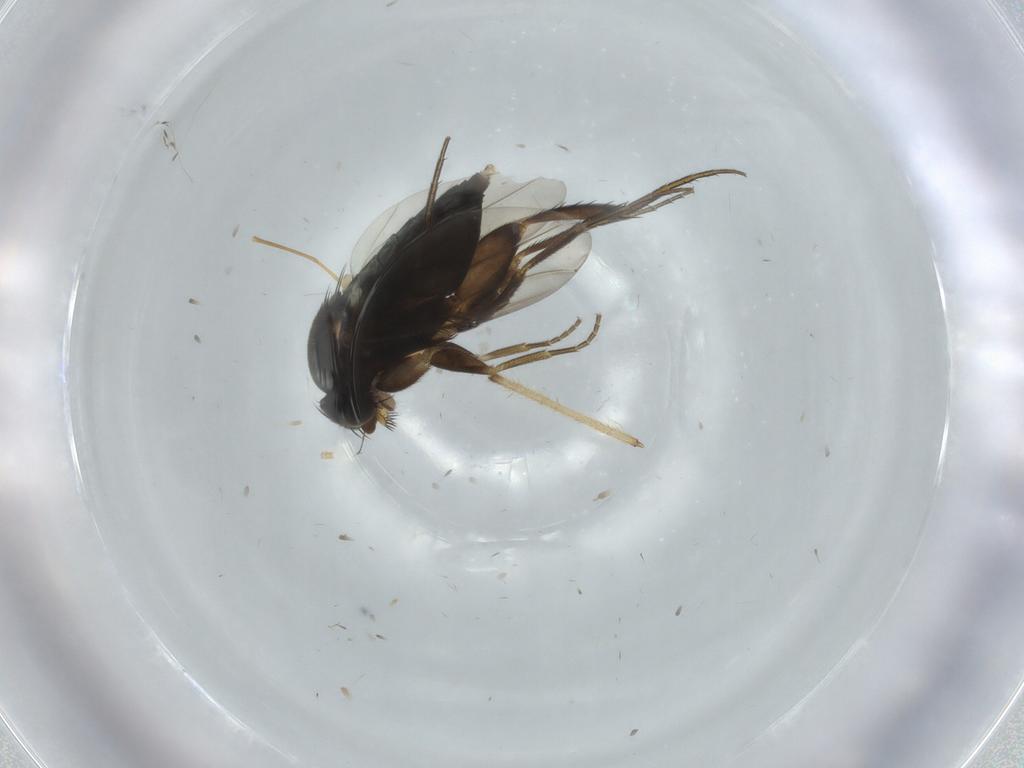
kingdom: Animalia
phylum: Arthropoda
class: Insecta
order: Diptera
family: Phoridae
